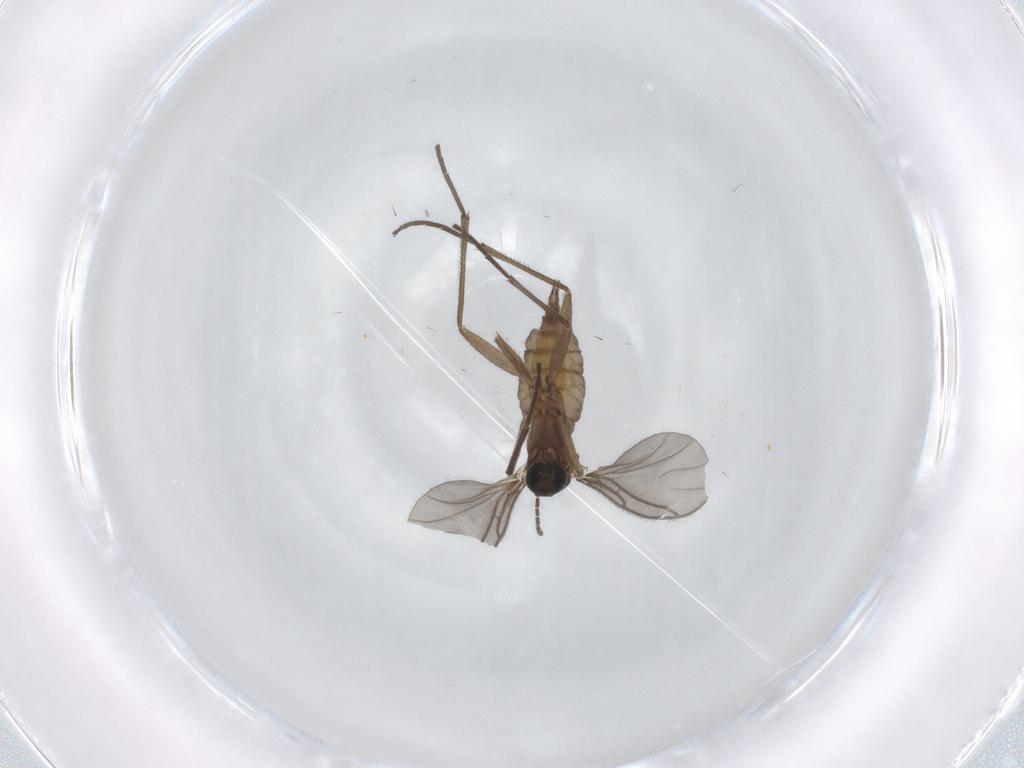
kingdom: Animalia
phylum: Arthropoda
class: Insecta
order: Diptera
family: Sciaridae
